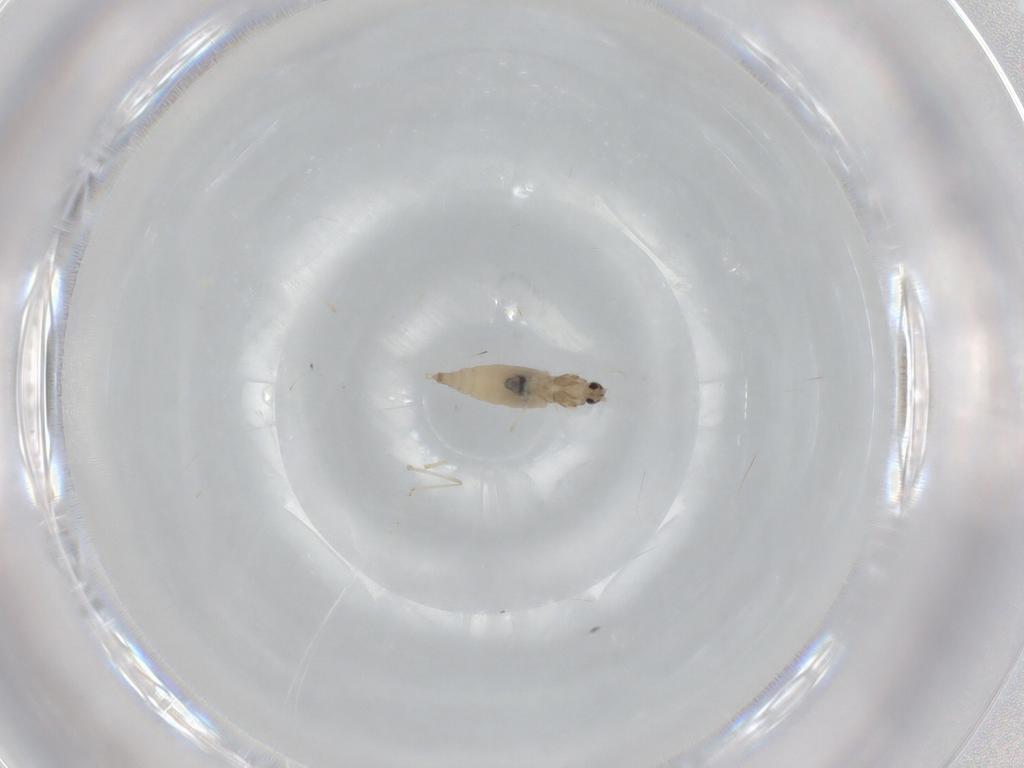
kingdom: Animalia
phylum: Arthropoda
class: Insecta
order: Diptera
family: Cecidomyiidae
